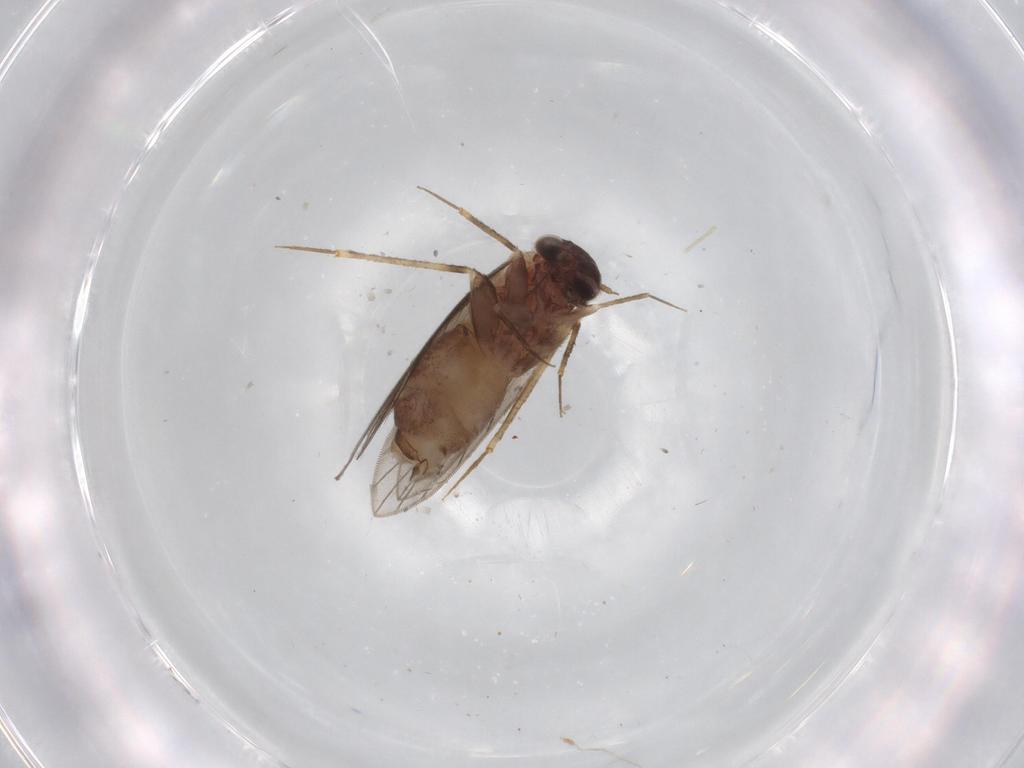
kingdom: Animalia
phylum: Arthropoda
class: Insecta
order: Psocodea
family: Lepidopsocidae
